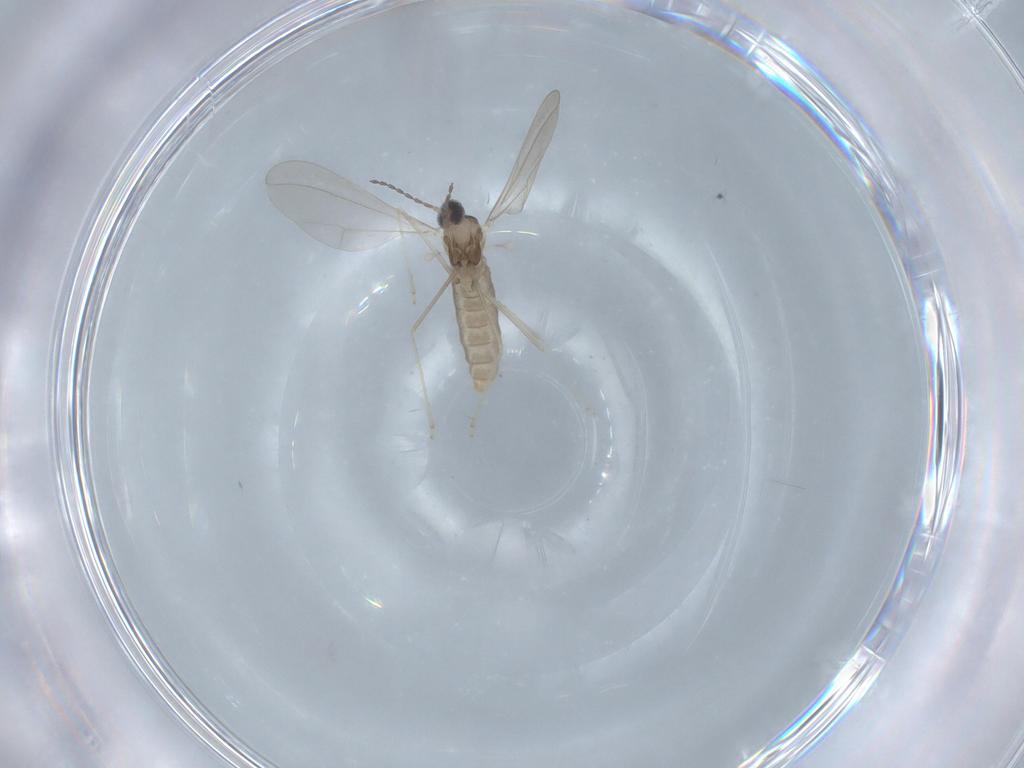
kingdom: Animalia
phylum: Arthropoda
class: Insecta
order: Diptera
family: Cecidomyiidae
